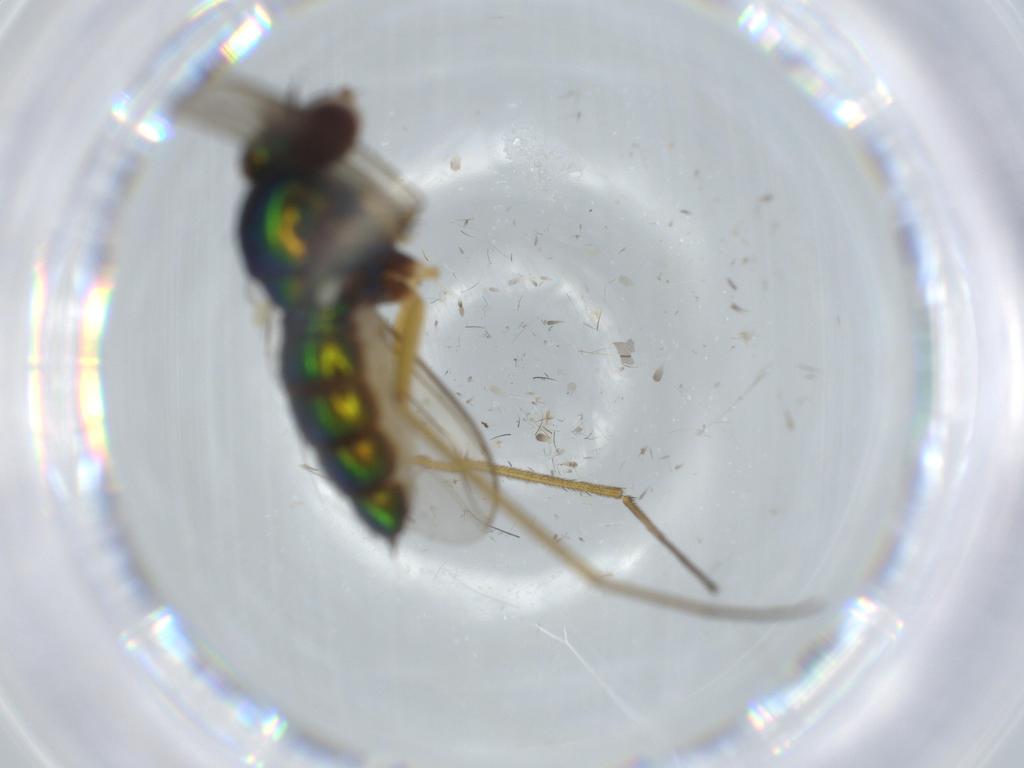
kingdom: Animalia
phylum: Arthropoda
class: Insecta
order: Diptera
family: Dolichopodidae
